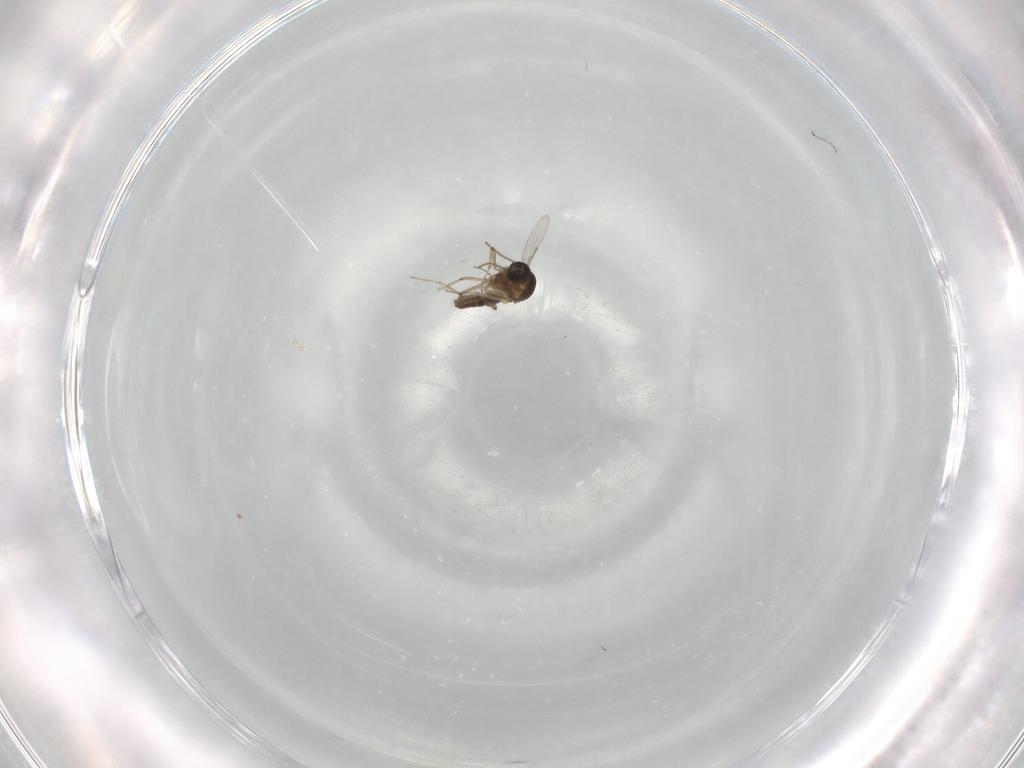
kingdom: Animalia
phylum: Arthropoda
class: Insecta
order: Diptera
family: Ceratopogonidae
